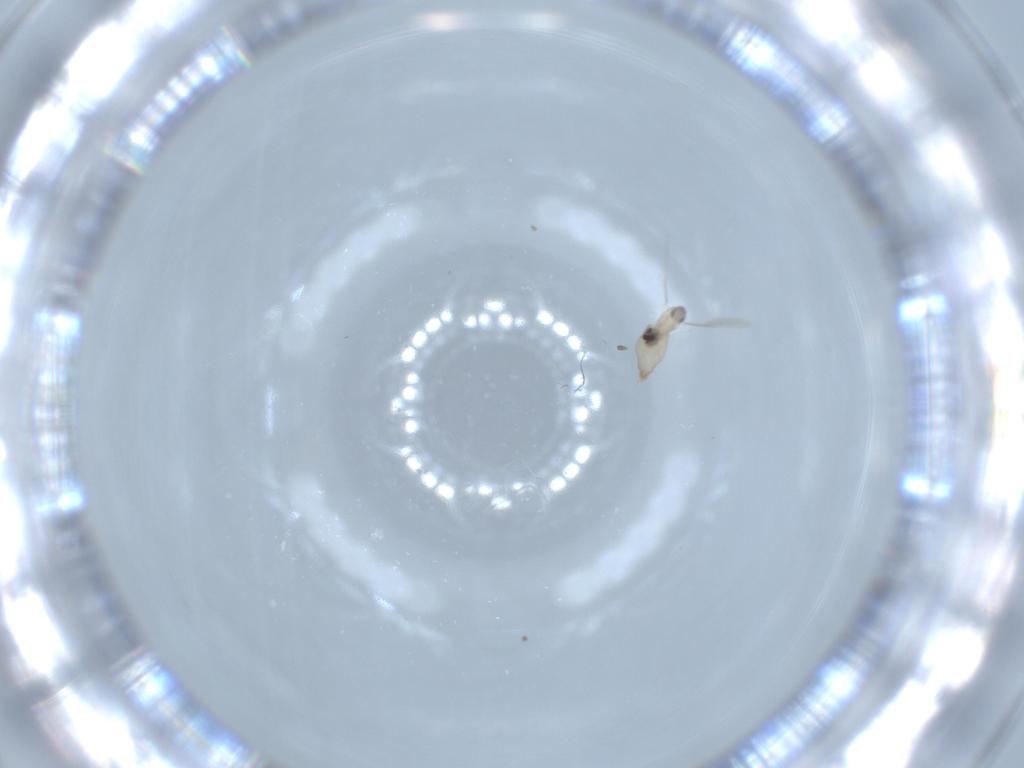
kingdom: Animalia
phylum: Arthropoda
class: Insecta
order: Diptera
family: Cecidomyiidae
